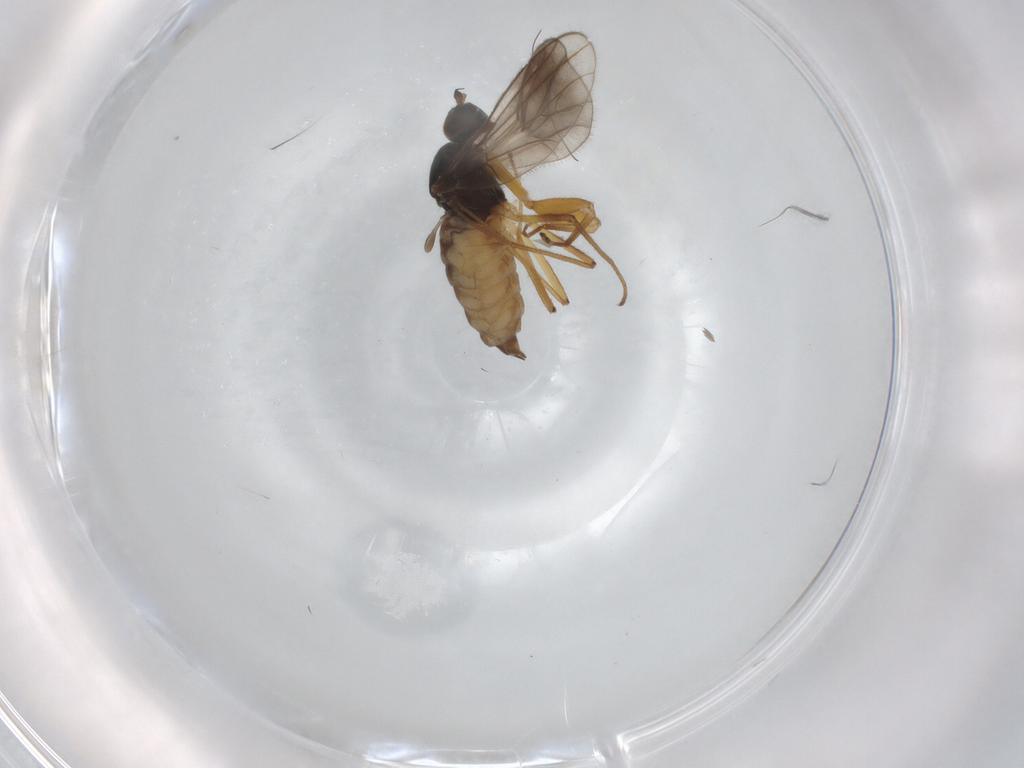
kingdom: Animalia
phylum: Arthropoda
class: Insecta
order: Diptera
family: Empididae
